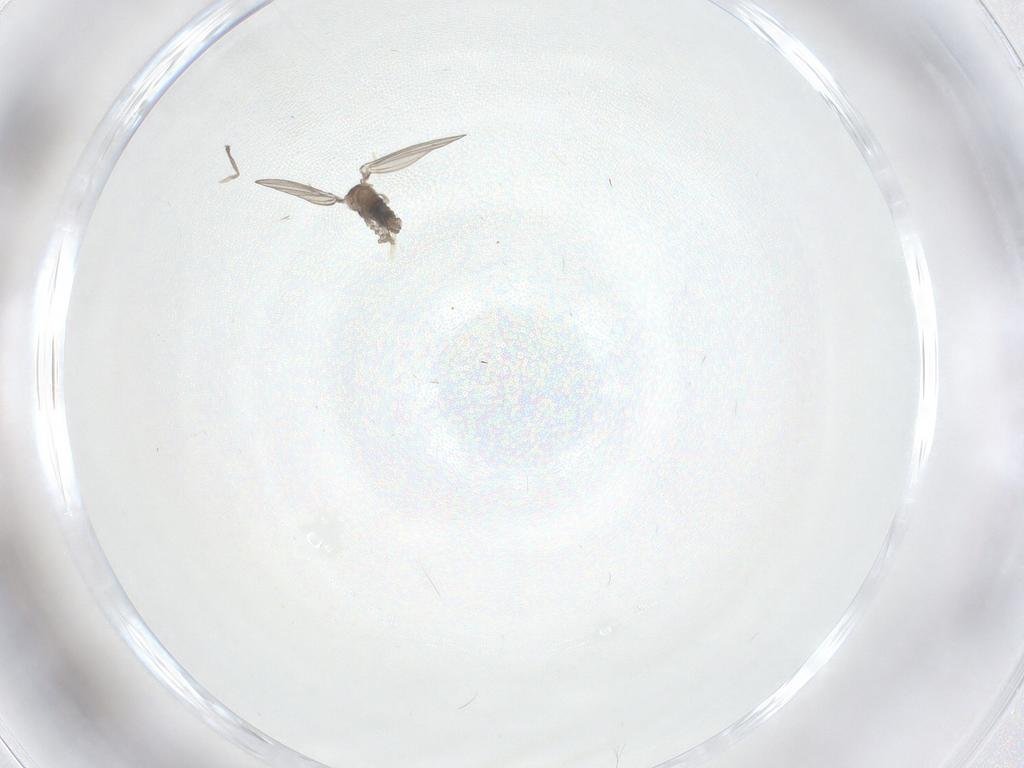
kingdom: Animalia
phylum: Arthropoda
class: Insecta
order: Diptera
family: Psychodidae
